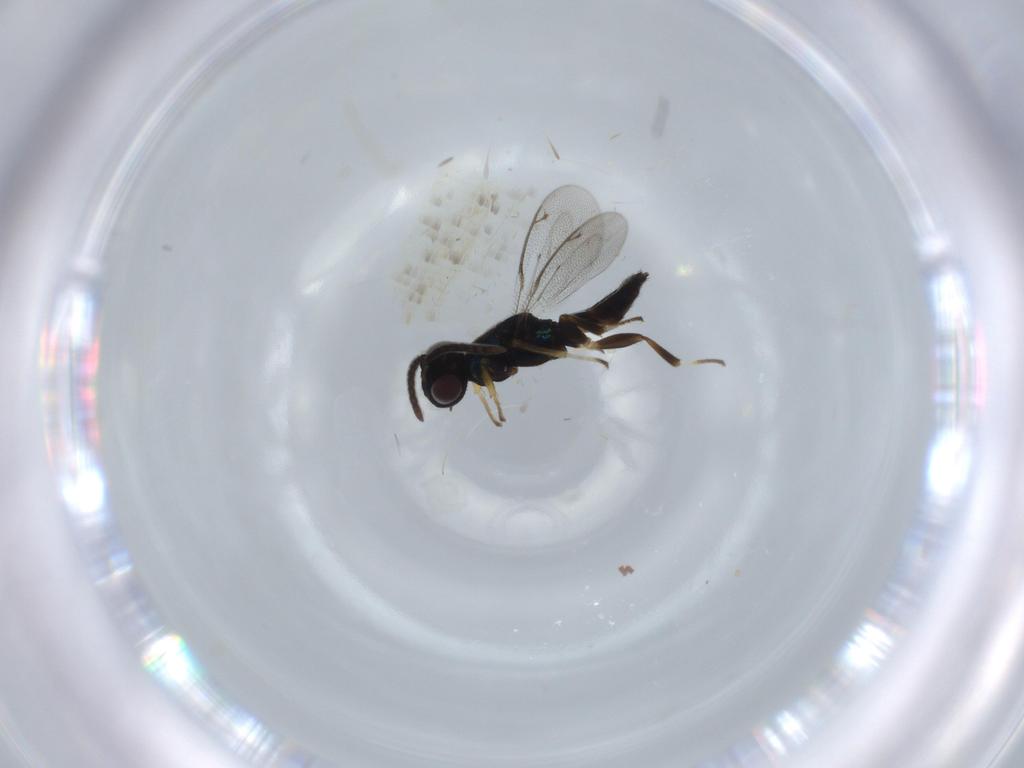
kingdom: Animalia
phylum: Arthropoda
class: Insecta
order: Hymenoptera
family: Eupelmidae
